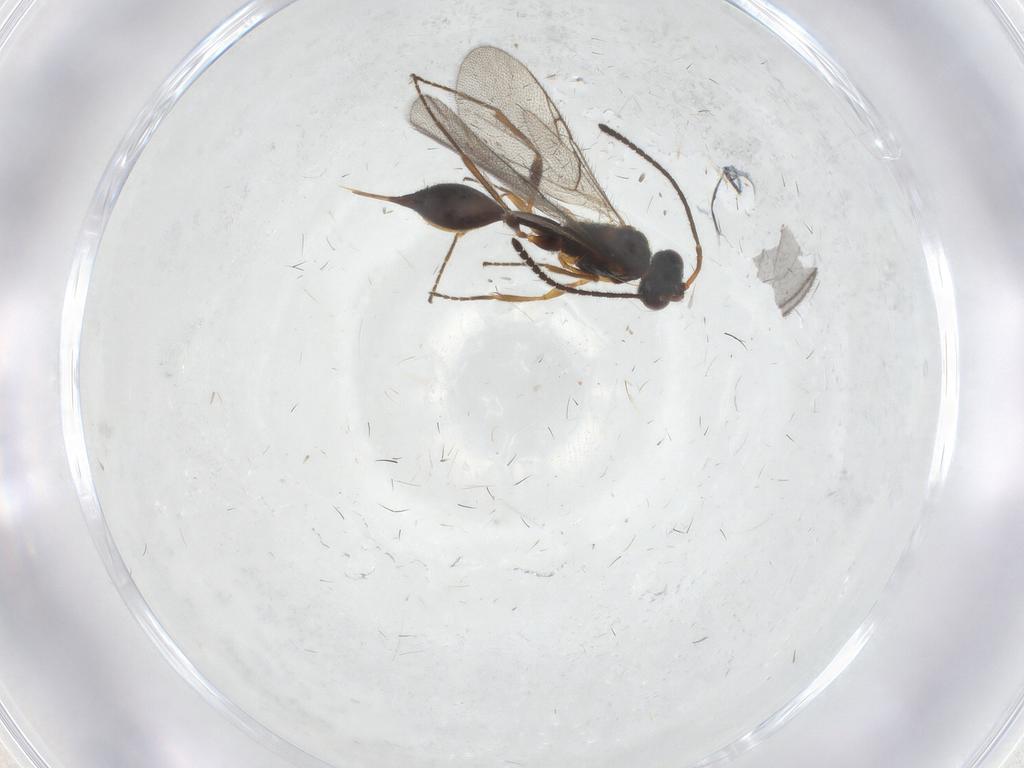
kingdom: Animalia
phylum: Arthropoda
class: Insecta
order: Hymenoptera
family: Diapriidae
